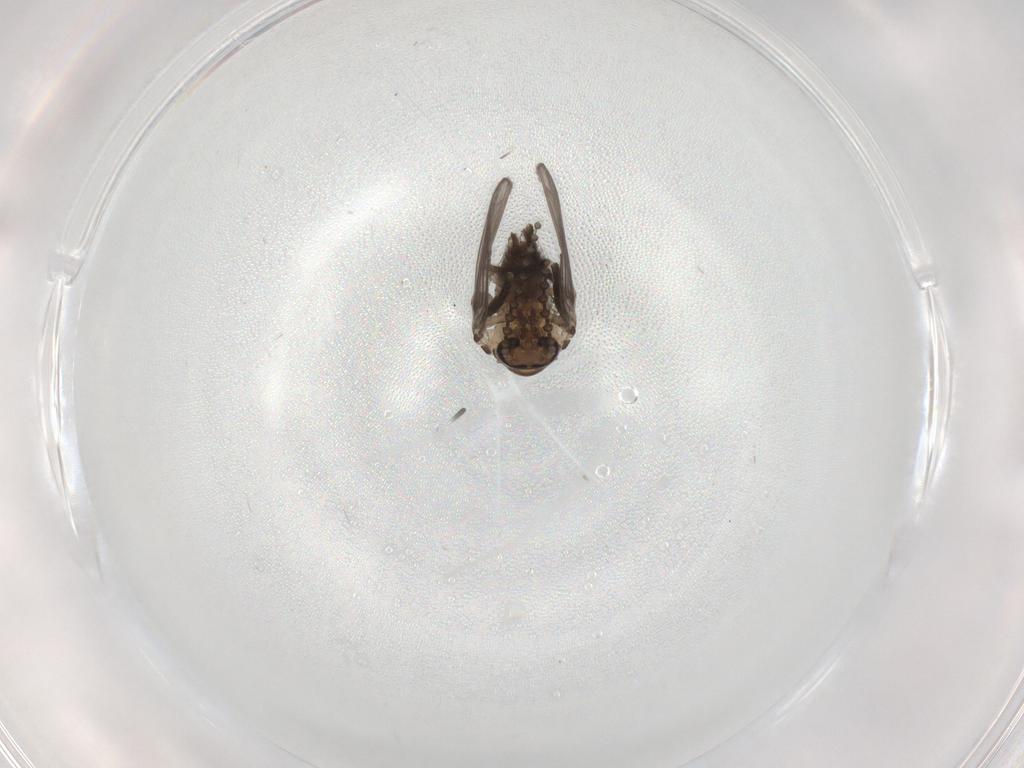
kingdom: Animalia
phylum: Arthropoda
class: Insecta
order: Diptera
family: Psychodidae
